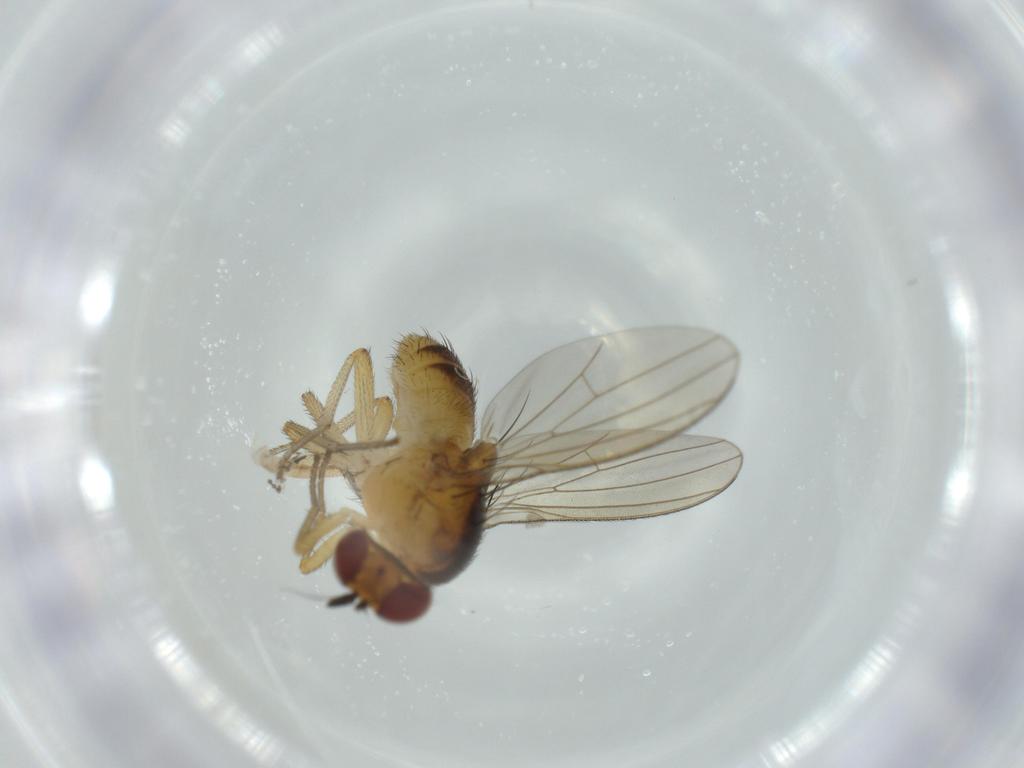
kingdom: Animalia
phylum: Arthropoda
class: Insecta
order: Diptera
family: Lauxaniidae
